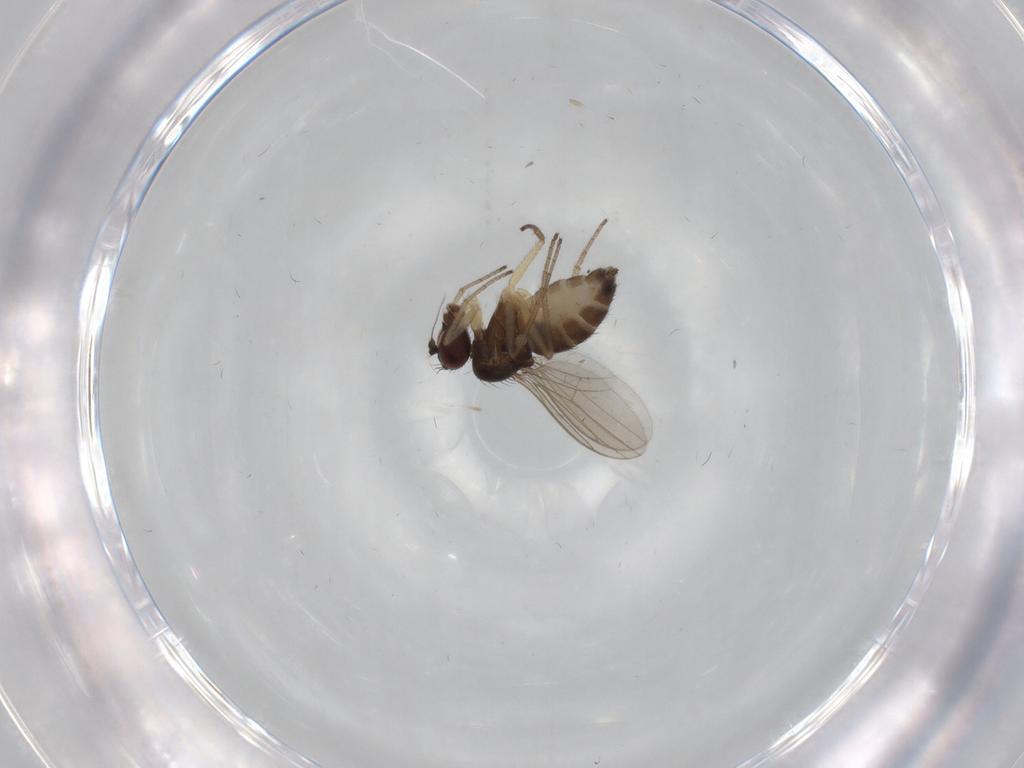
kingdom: Animalia
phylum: Arthropoda
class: Insecta
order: Diptera
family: Dolichopodidae
